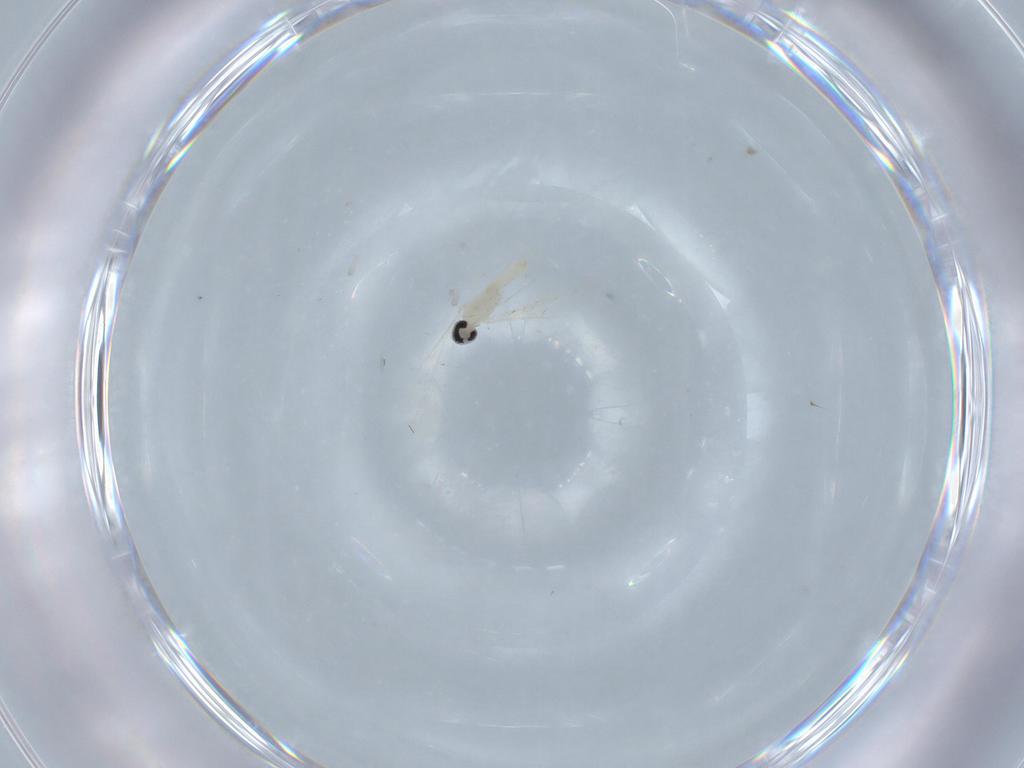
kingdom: Animalia
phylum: Arthropoda
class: Insecta
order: Diptera
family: Cecidomyiidae
